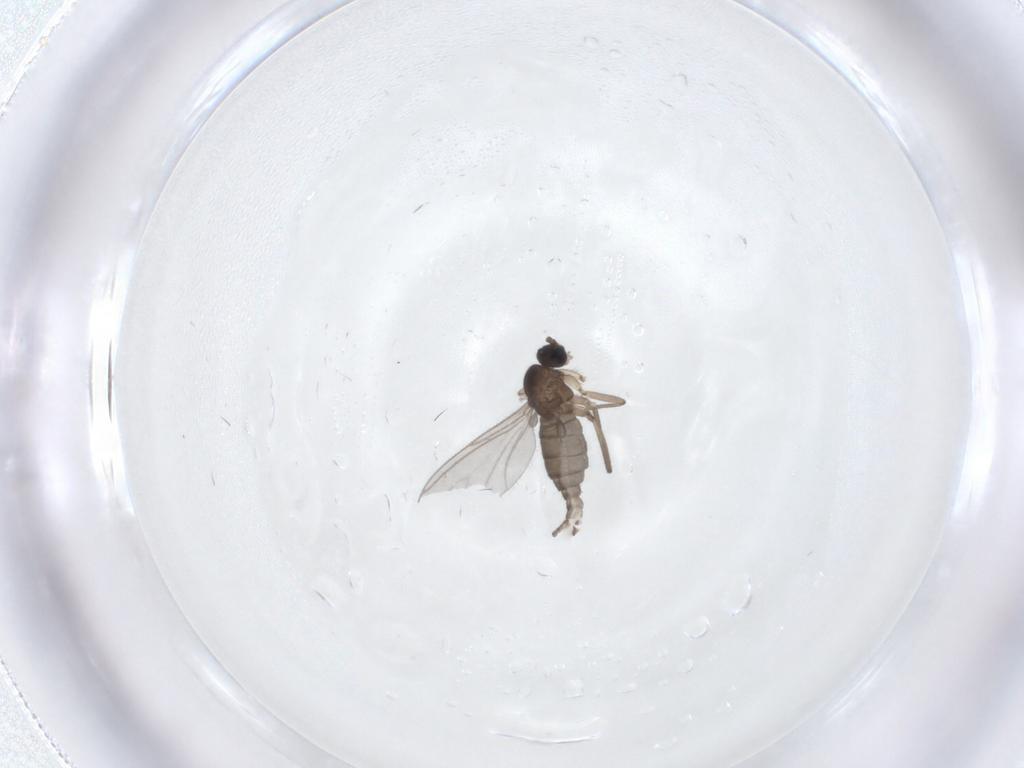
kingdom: Animalia
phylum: Arthropoda
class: Insecta
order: Diptera
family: Sciaridae
